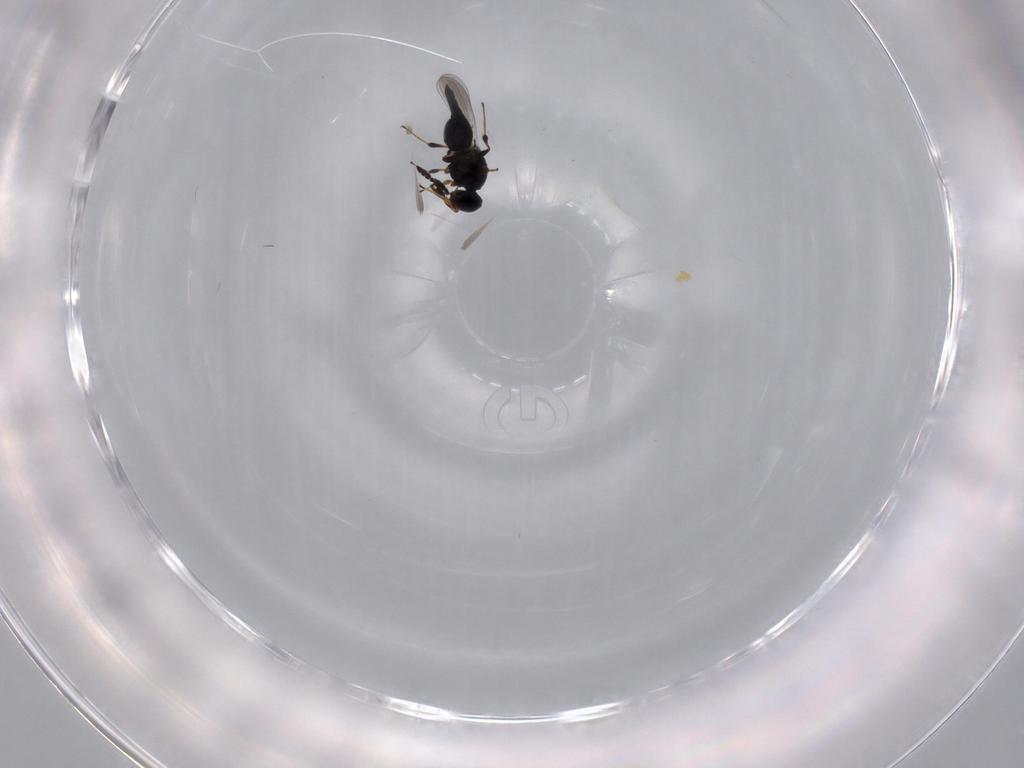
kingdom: Animalia
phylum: Arthropoda
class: Insecta
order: Hymenoptera
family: Platygastridae
